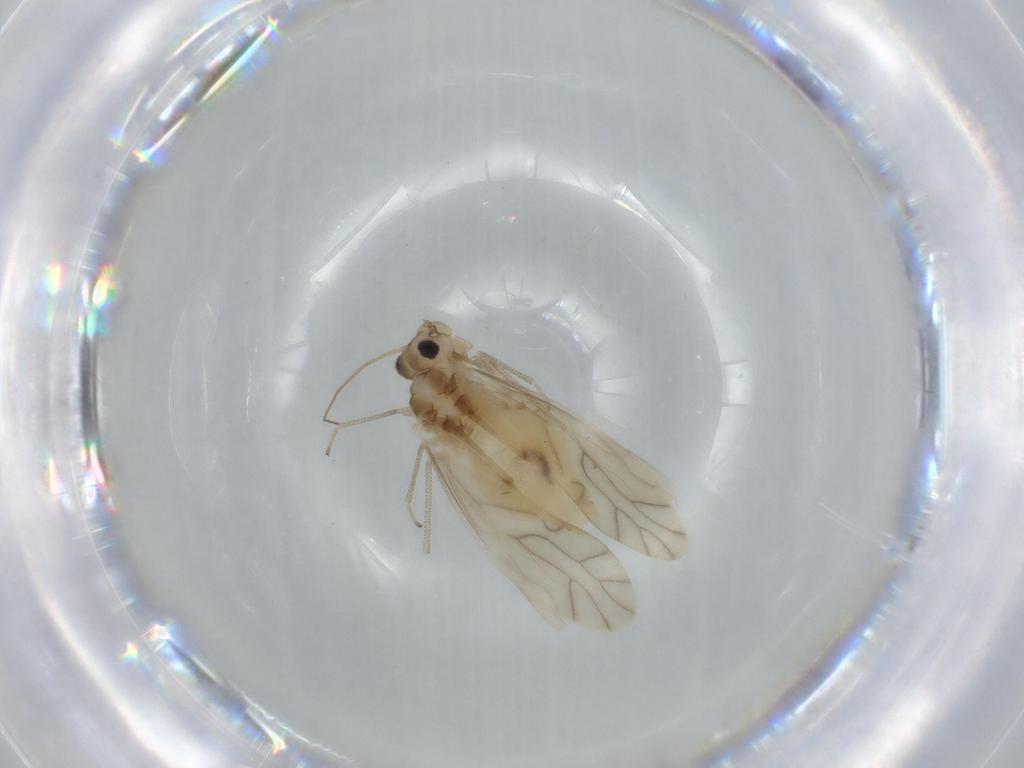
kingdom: Animalia
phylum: Arthropoda
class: Insecta
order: Psocodea
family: Caeciliusidae
